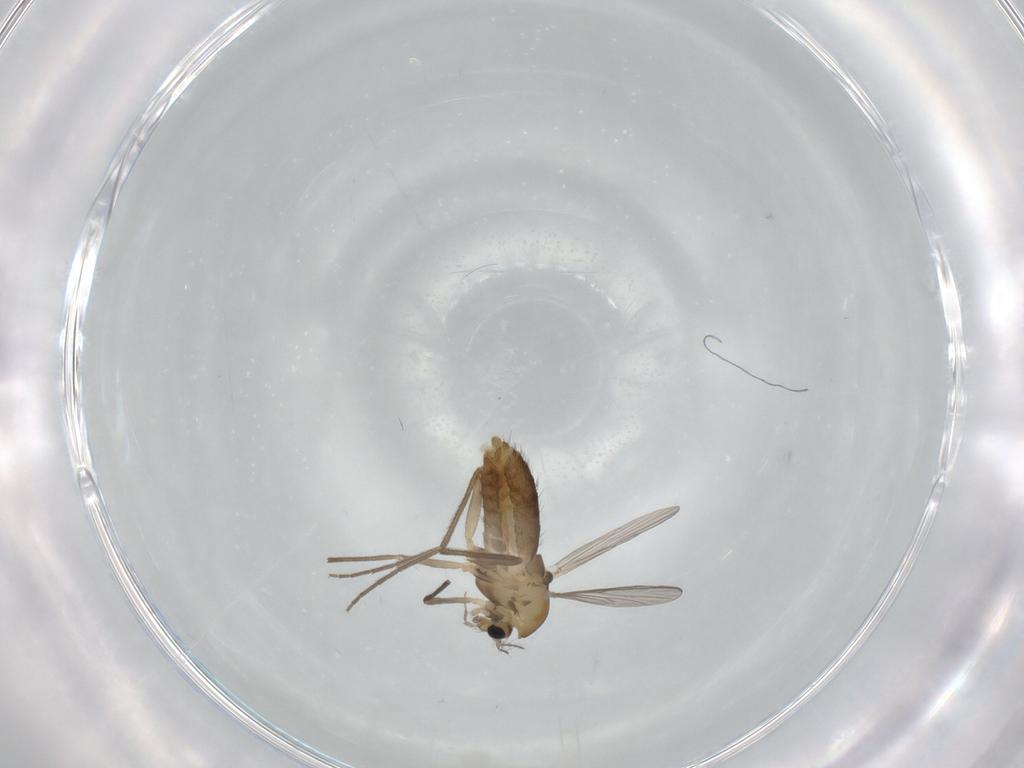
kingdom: Animalia
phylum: Arthropoda
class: Insecta
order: Diptera
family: Chironomidae
